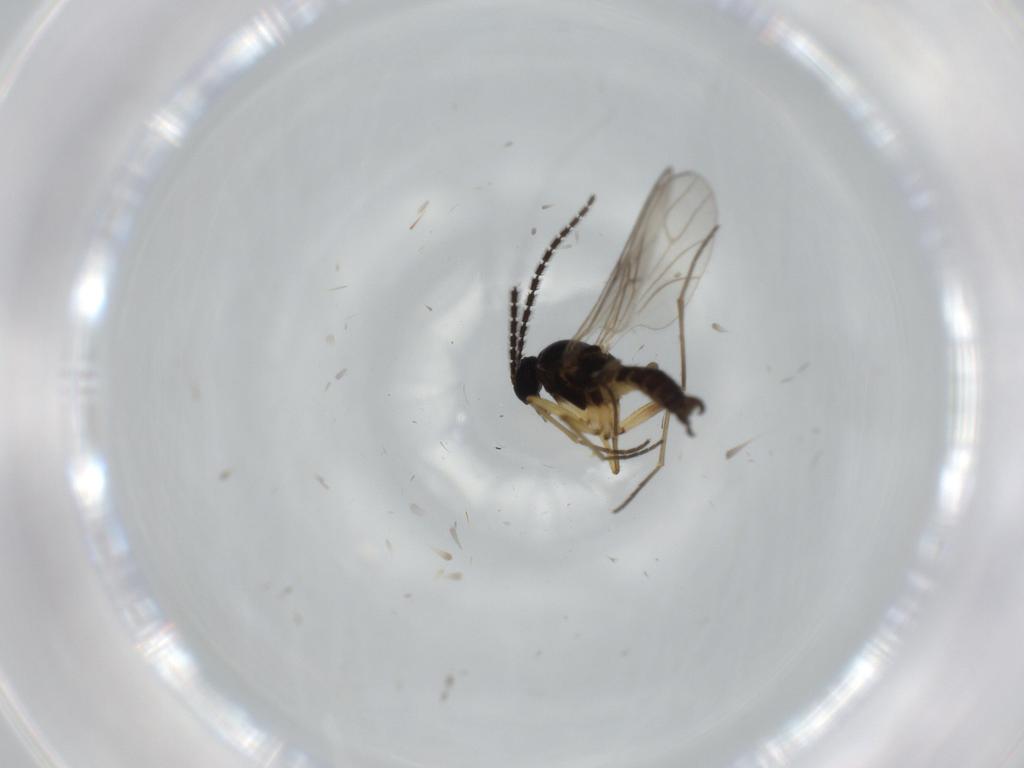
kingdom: Animalia
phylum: Arthropoda
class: Insecta
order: Diptera
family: Sciaridae
